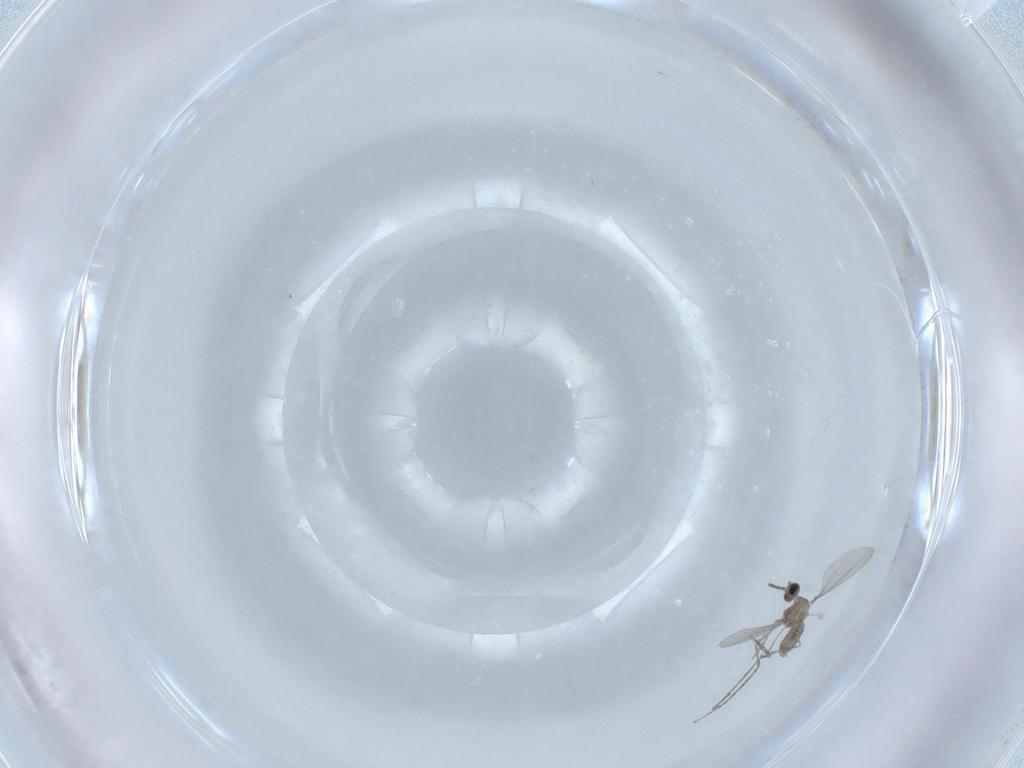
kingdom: Animalia
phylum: Arthropoda
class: Insecta
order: Diptera
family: Cecidomyiidae
